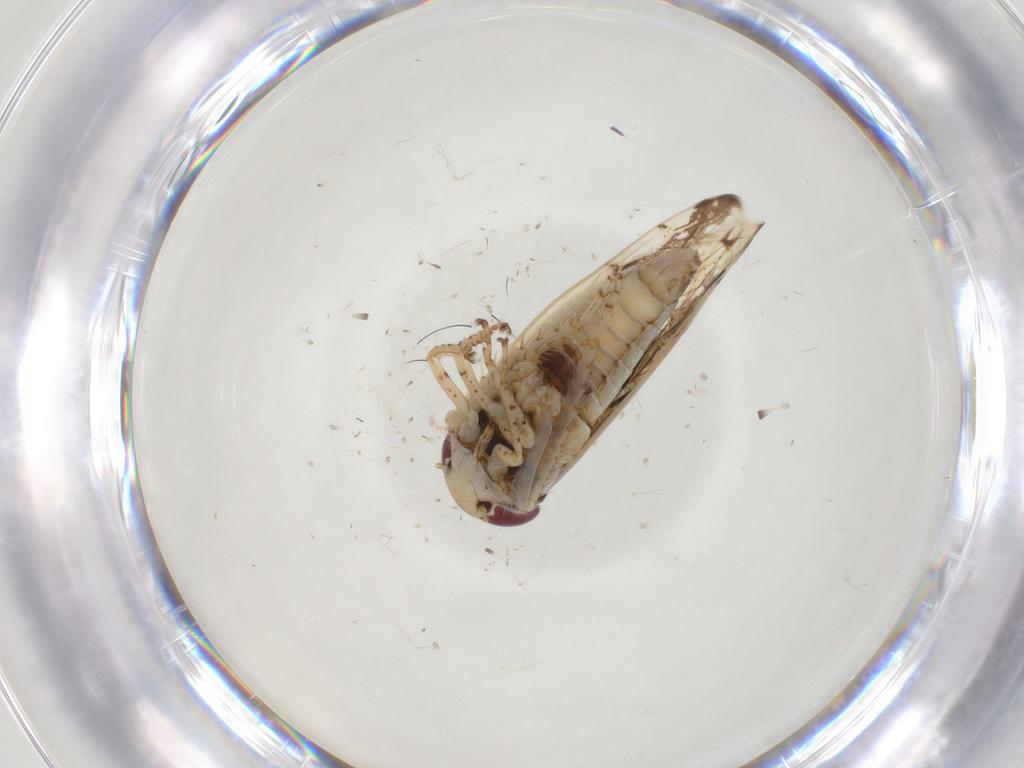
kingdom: Animalia
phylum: Arthropoda
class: Insecta
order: Hemiptera
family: Cicadellidae
